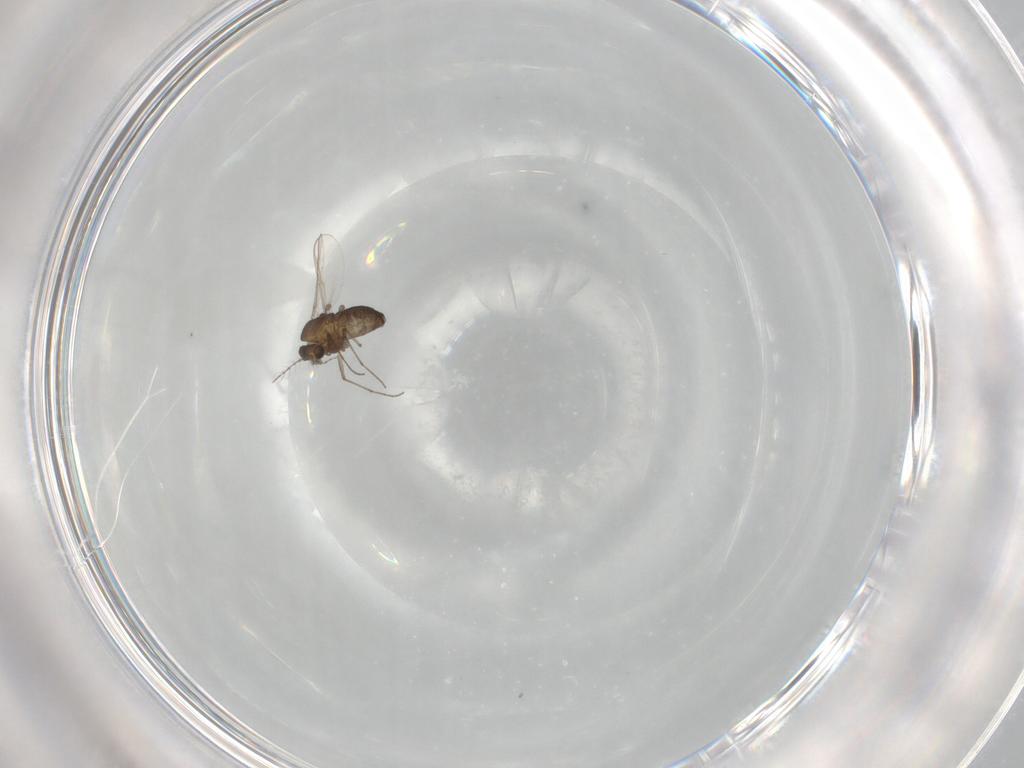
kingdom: Animalia
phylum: Arthropoda
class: Insecta
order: Diptera
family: Chironomidae
